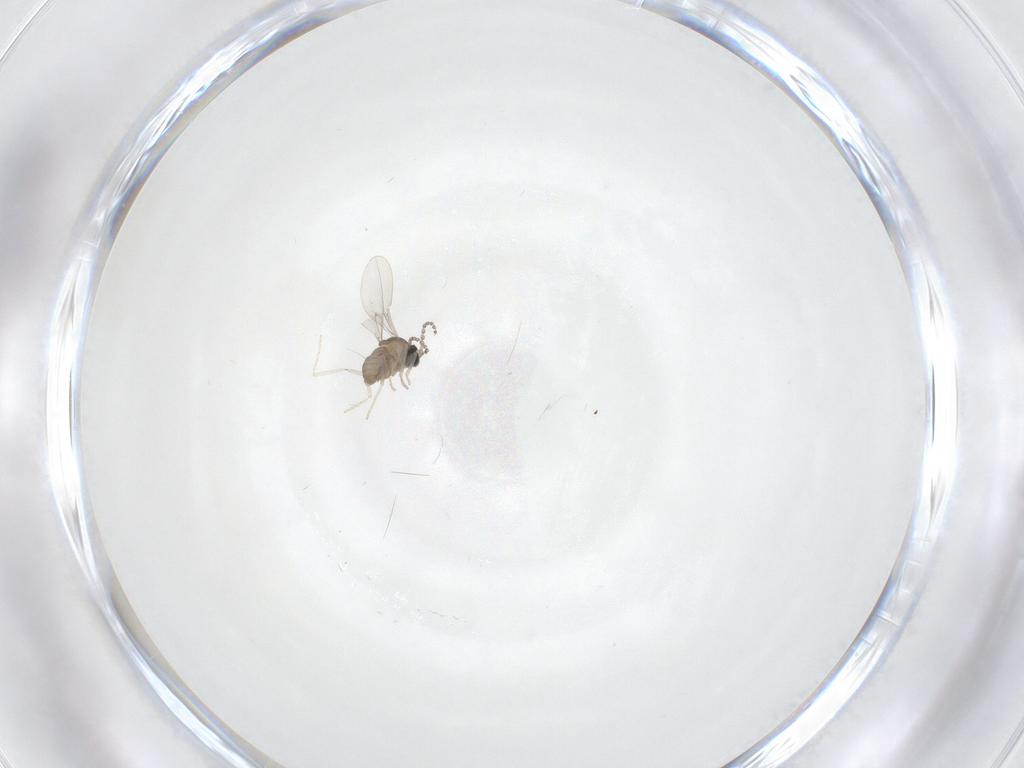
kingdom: Animalia
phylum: Arthropoda
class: Insecta
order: Diptera
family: Cecidomyiidae
